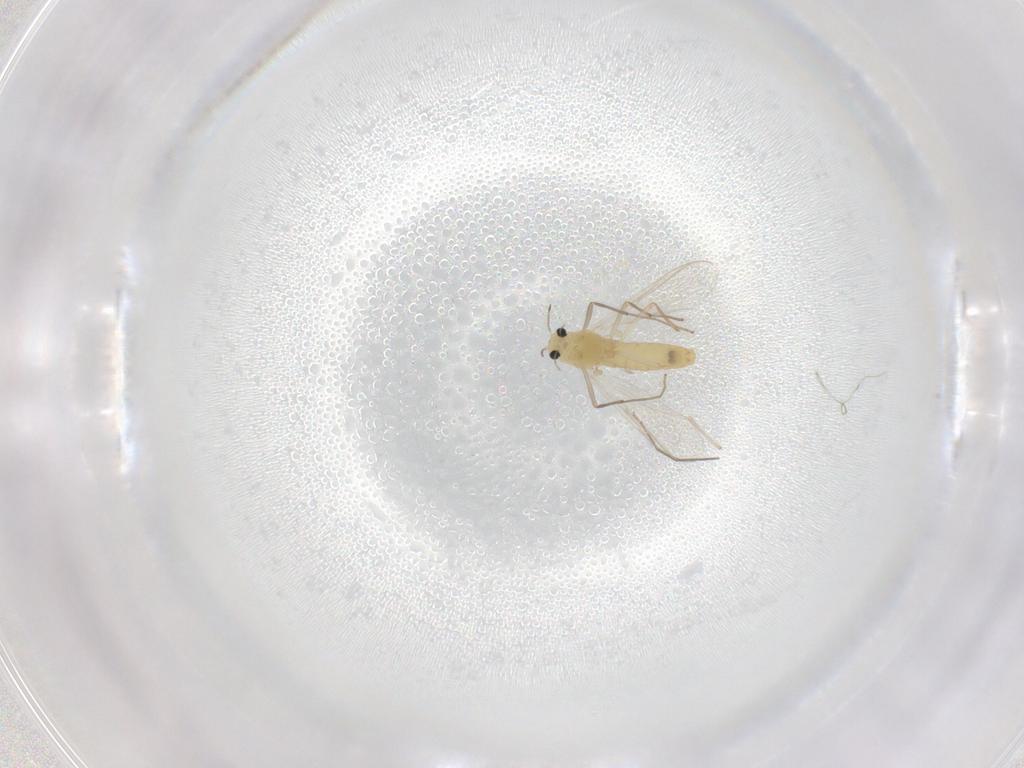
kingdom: Animalia
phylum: Arthropoda
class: Insecta
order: Diptera
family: Chironomidae
